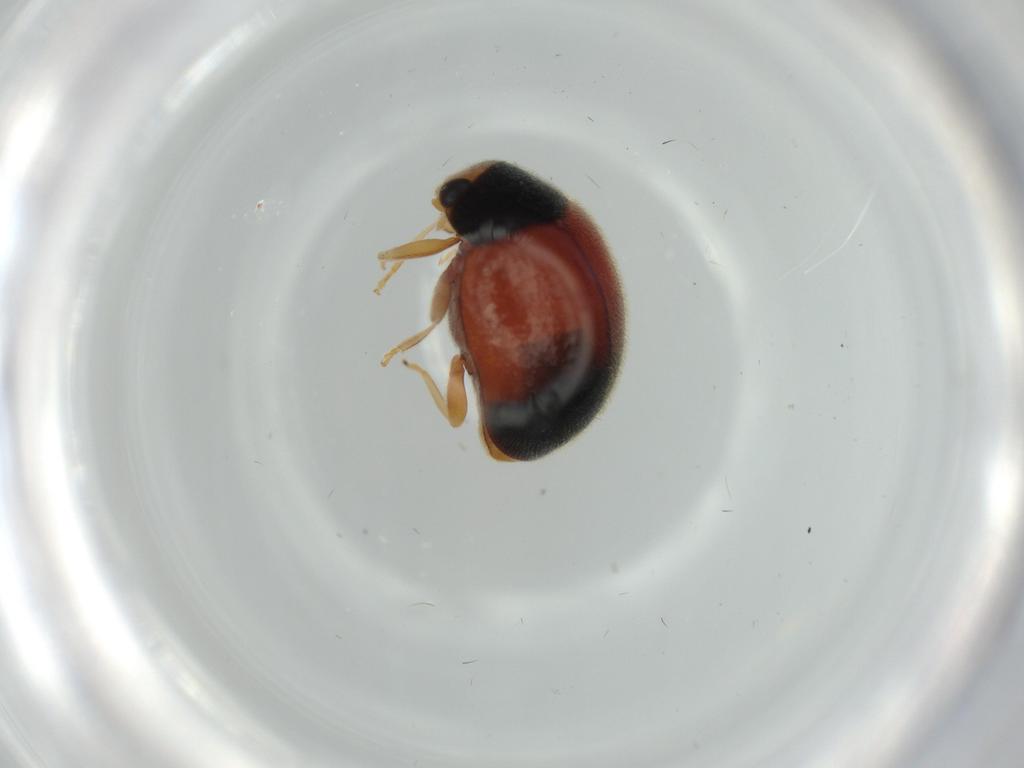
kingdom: Animalia
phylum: Arthropoda
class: Insecta
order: Coleoptera
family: Coccinellidae
